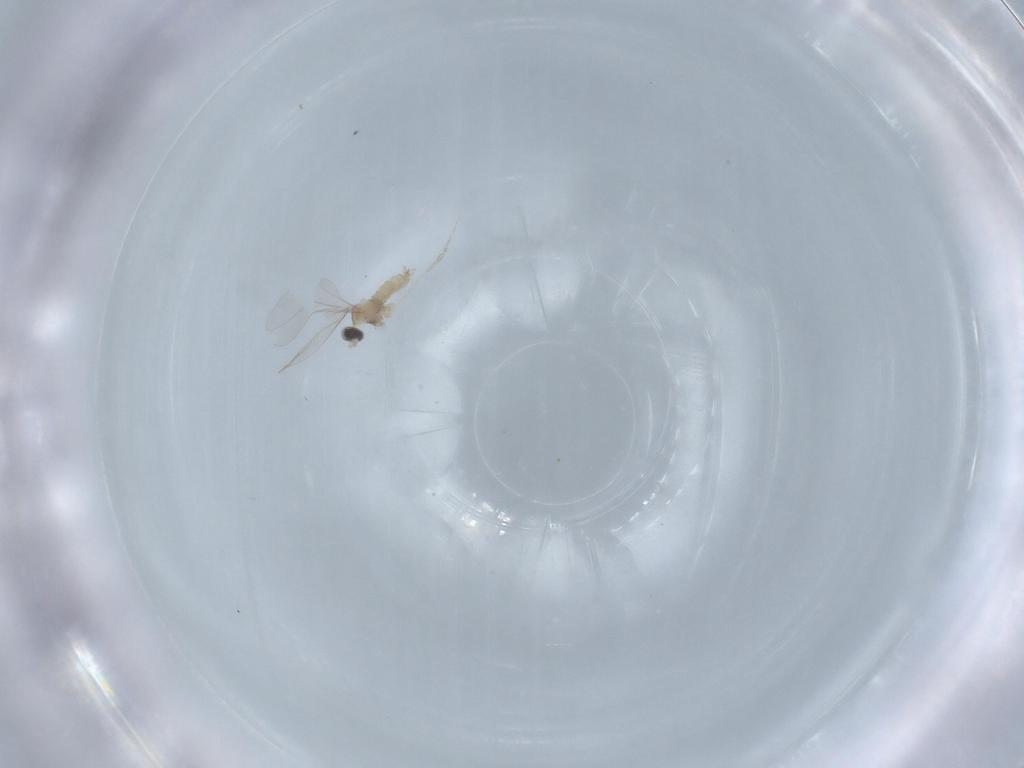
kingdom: Animalia
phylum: Arthropoda
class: Insecta
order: Diptera
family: Cecidomyiidae
